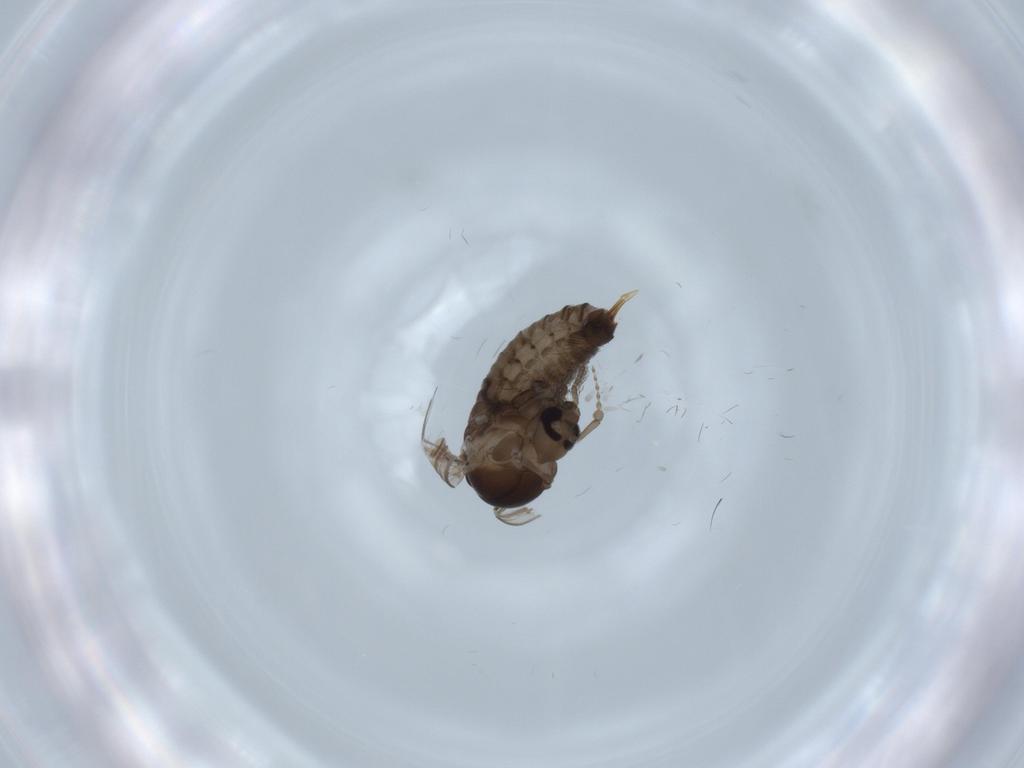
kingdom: Animalia
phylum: Arthropoda
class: Insecta
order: Diptera
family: Psychodidae
